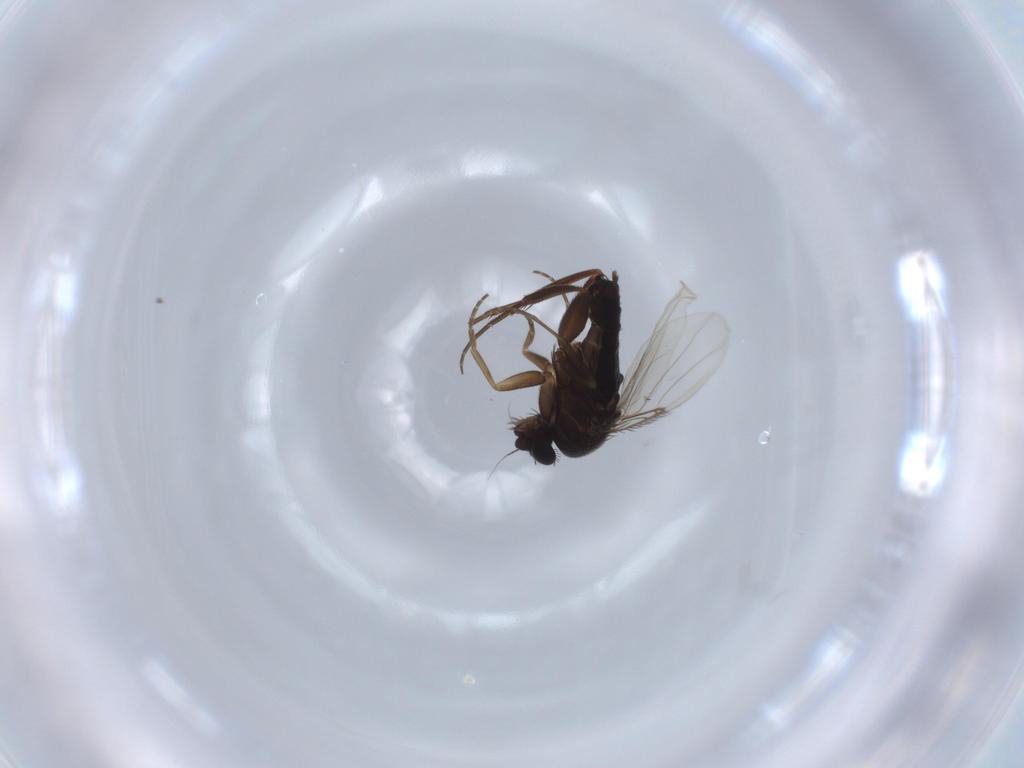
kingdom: Animalia
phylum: Arthropoda
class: Insecta
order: Diptera
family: Phoridae
